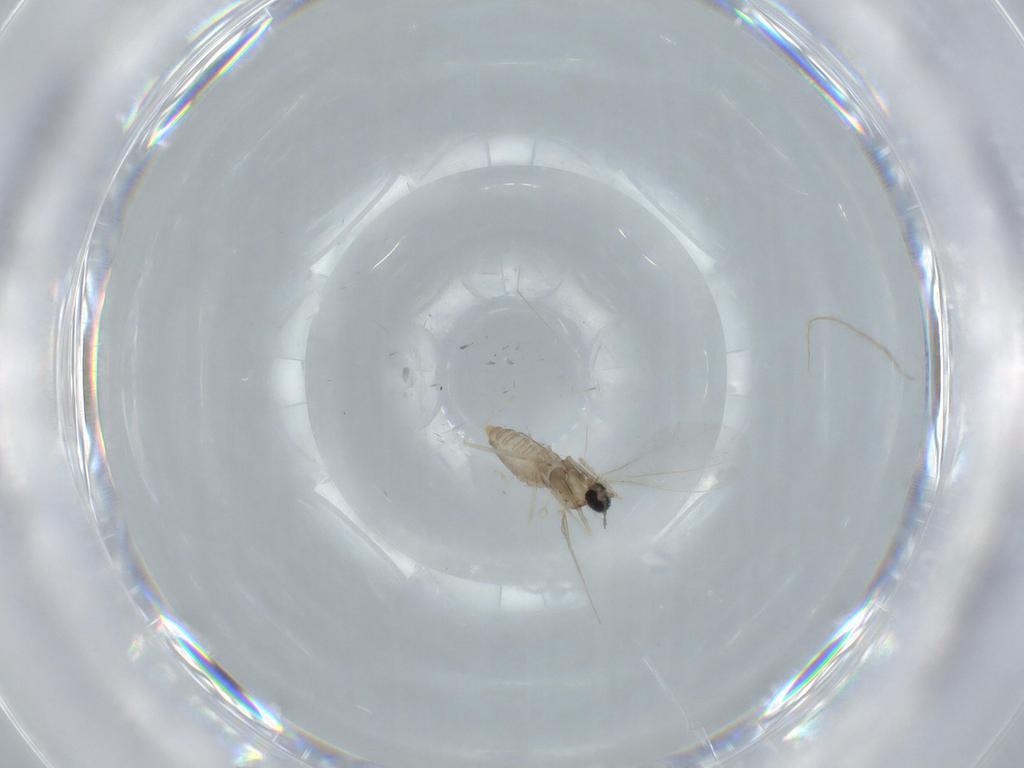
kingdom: Animalia
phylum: Arthropoda
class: Insecta
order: Diptera
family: Cecidomyiidae
